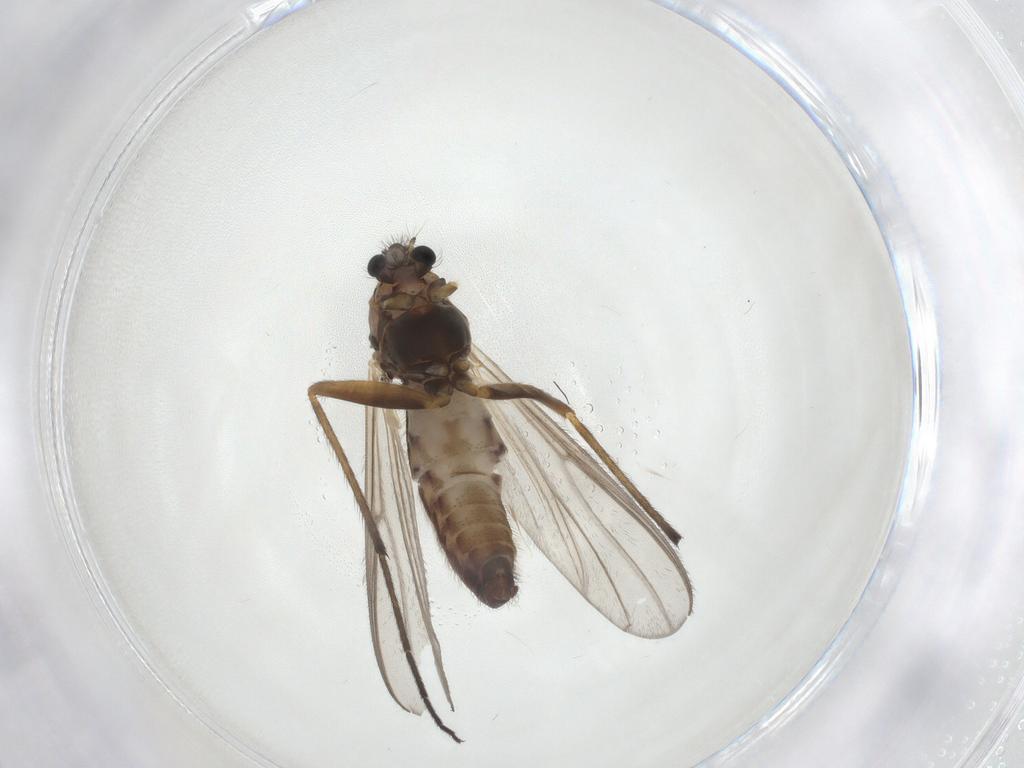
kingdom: Animalia
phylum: Arthropoda
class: Insecta
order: Diptera
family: Chironomidae
